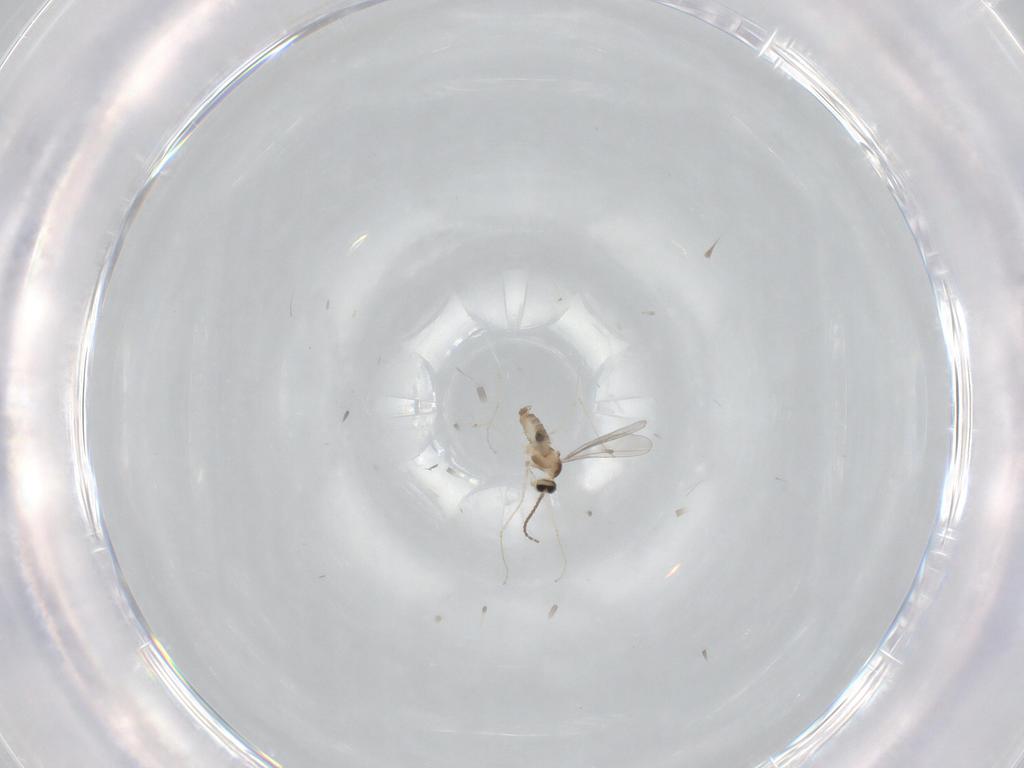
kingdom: Animalia
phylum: Arthropoda
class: Insecta
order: Diptera
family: Cecidomyiidae
